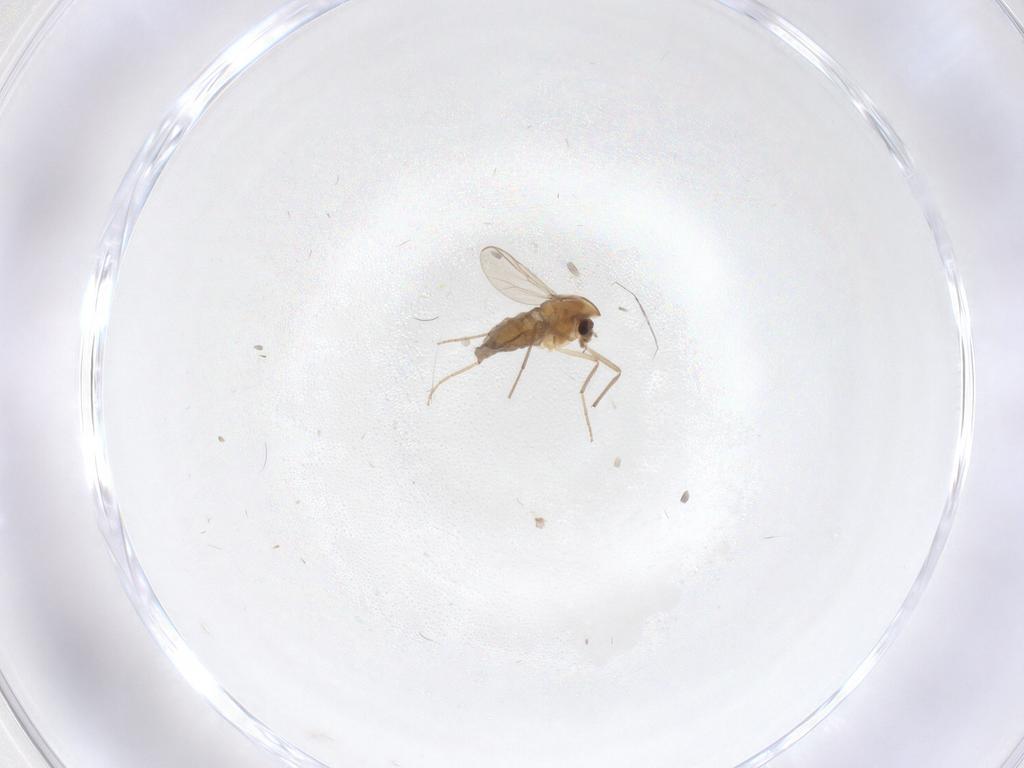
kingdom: Animalia
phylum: Arthropoda
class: Insecta
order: Diptera
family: Chironomidae
